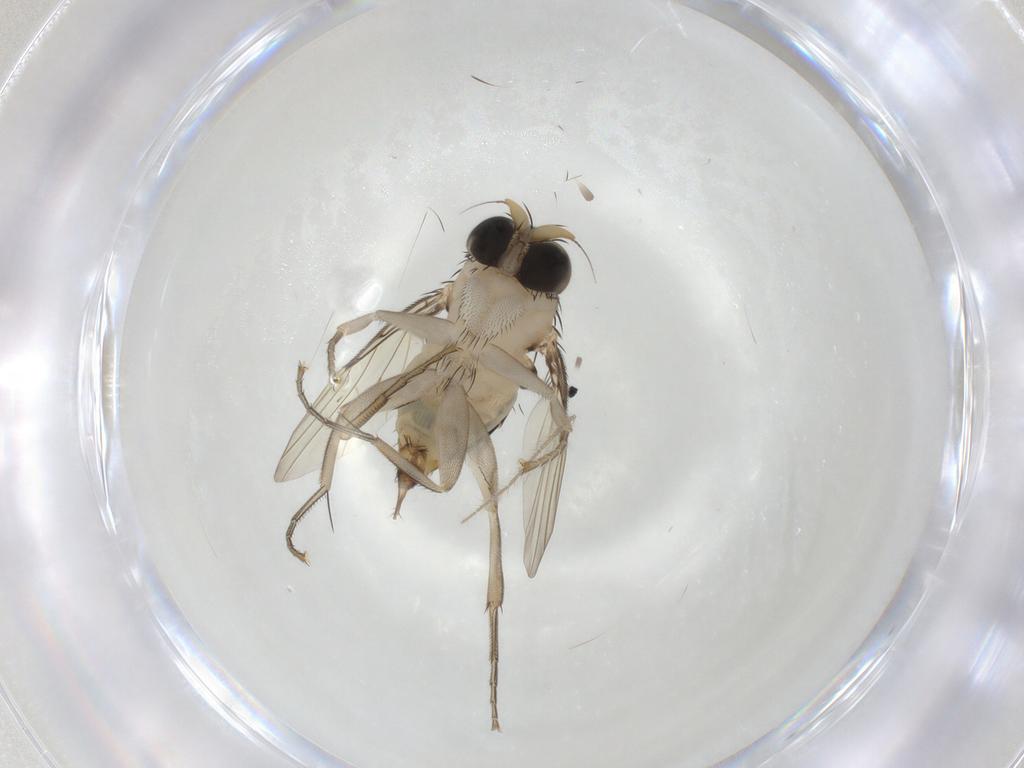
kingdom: Animalia
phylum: Arthropoda
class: Insecta
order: Diptera
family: Phoridae
